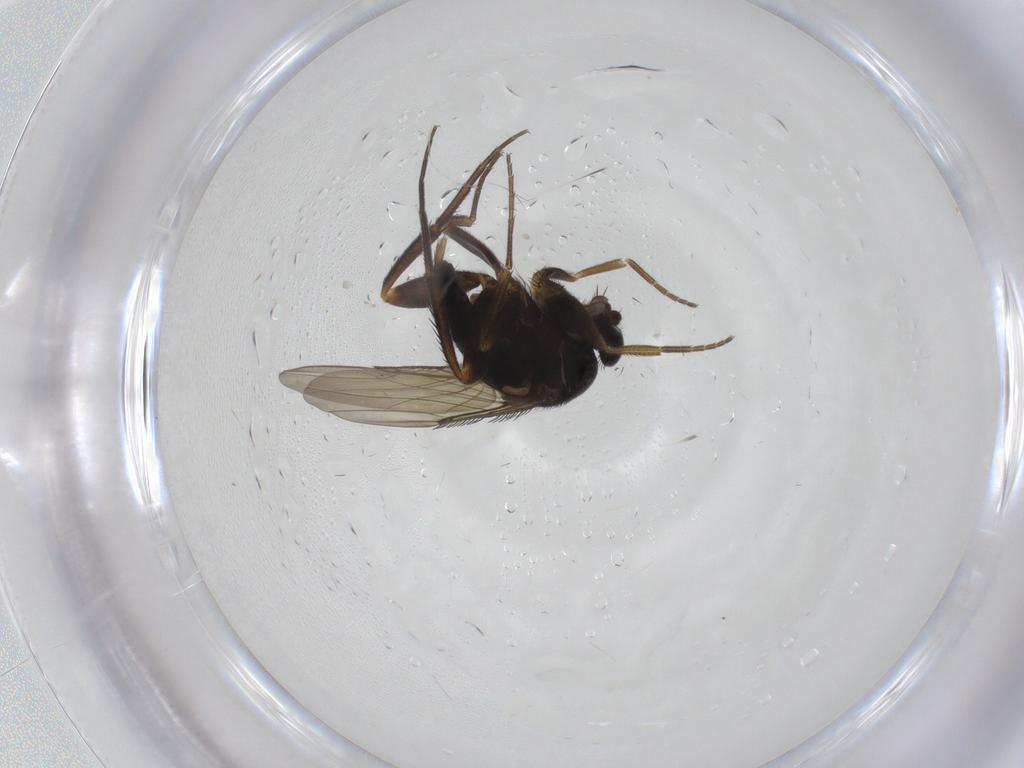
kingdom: Animalia
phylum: Arthropoda
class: Insecta
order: Diptera
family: Phoridae
